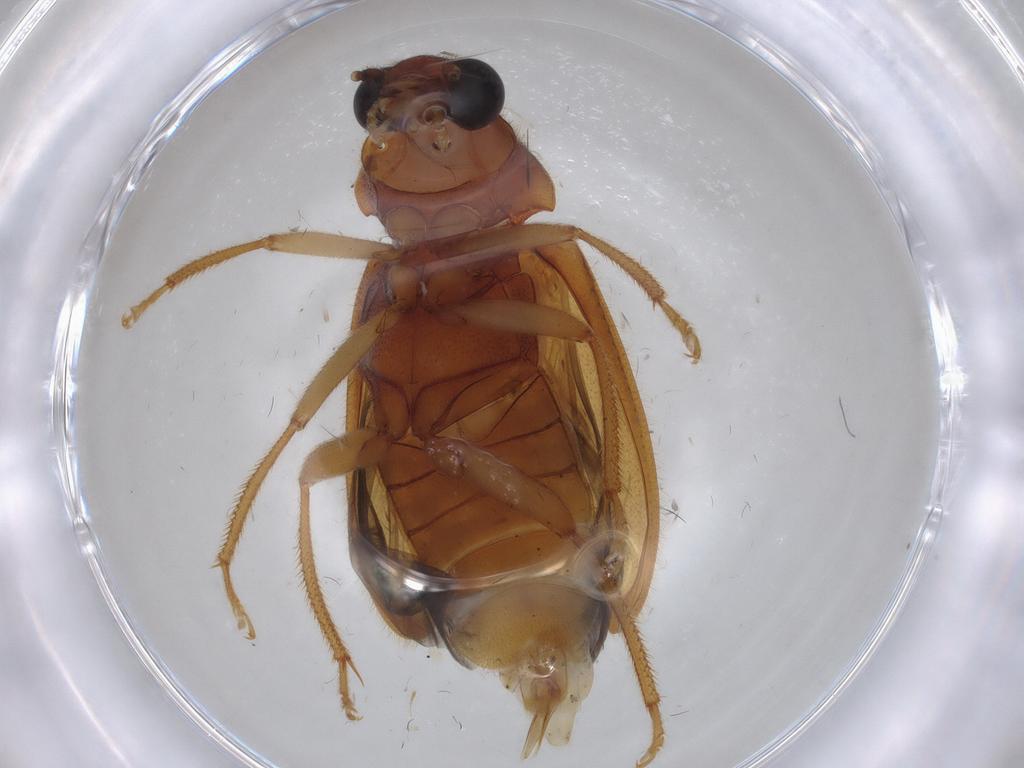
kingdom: Animalia
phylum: Arthropoda
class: Insecta
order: Coleoptera
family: Ptilodactylidae
